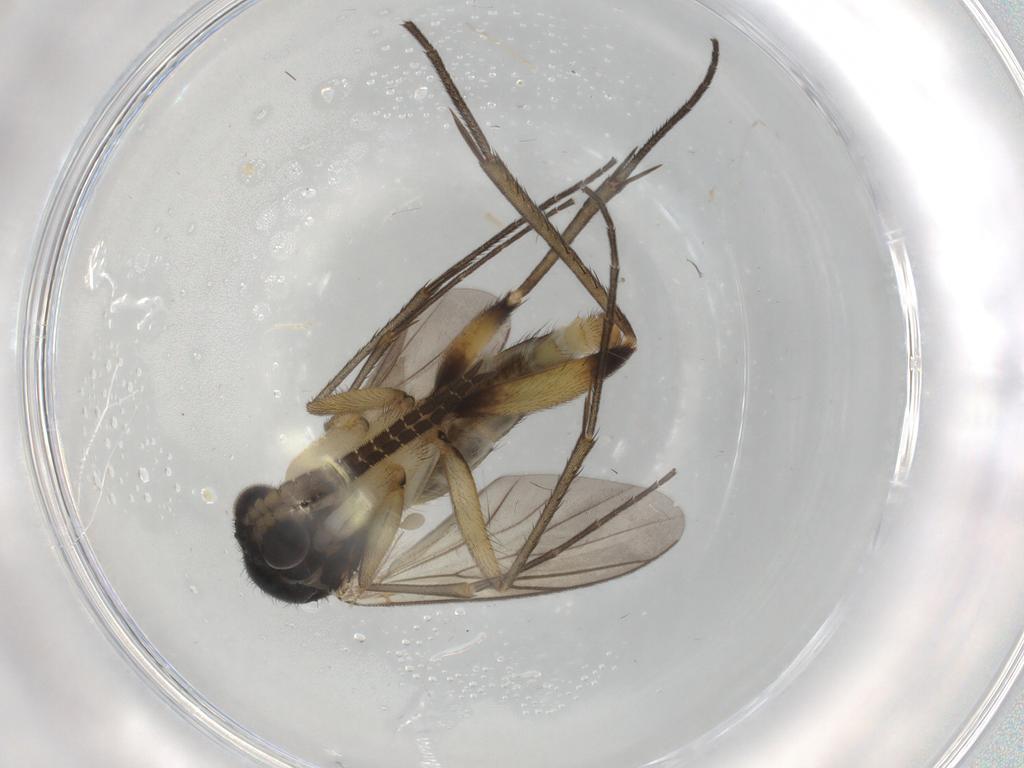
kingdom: Animalia
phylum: Arthropoda
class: Insecta
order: Diptera
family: Mycetophilidae
